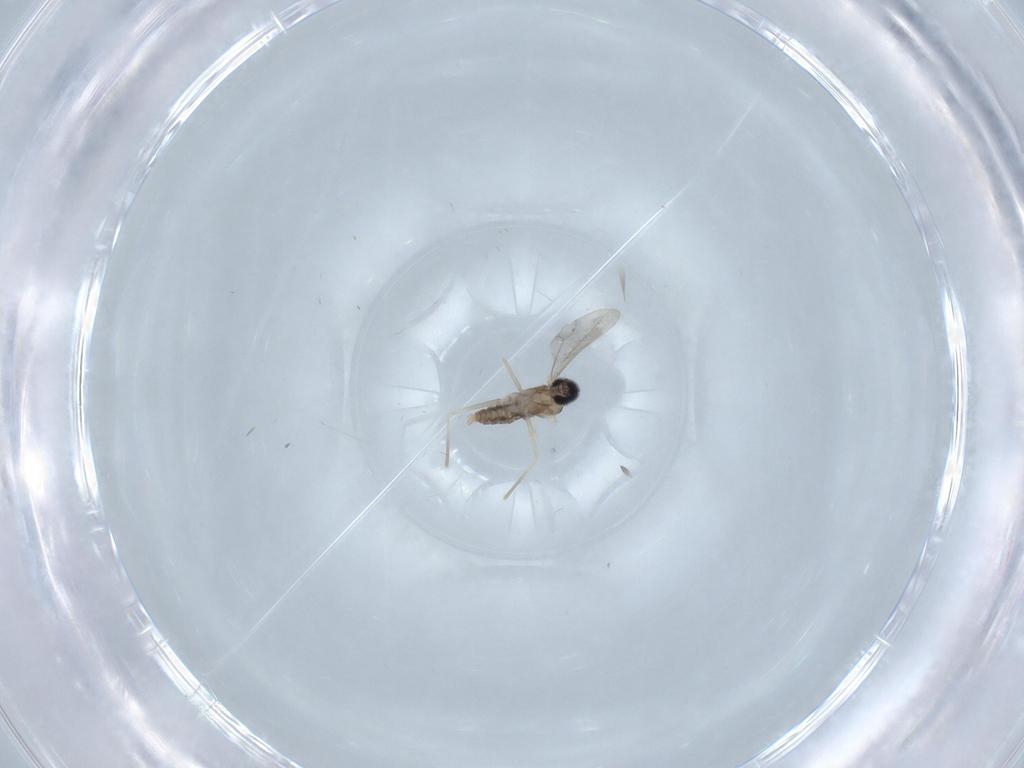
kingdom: Animalia
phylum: Arthropoda
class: Insecta
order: Diptera
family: Cecidomyiidae
